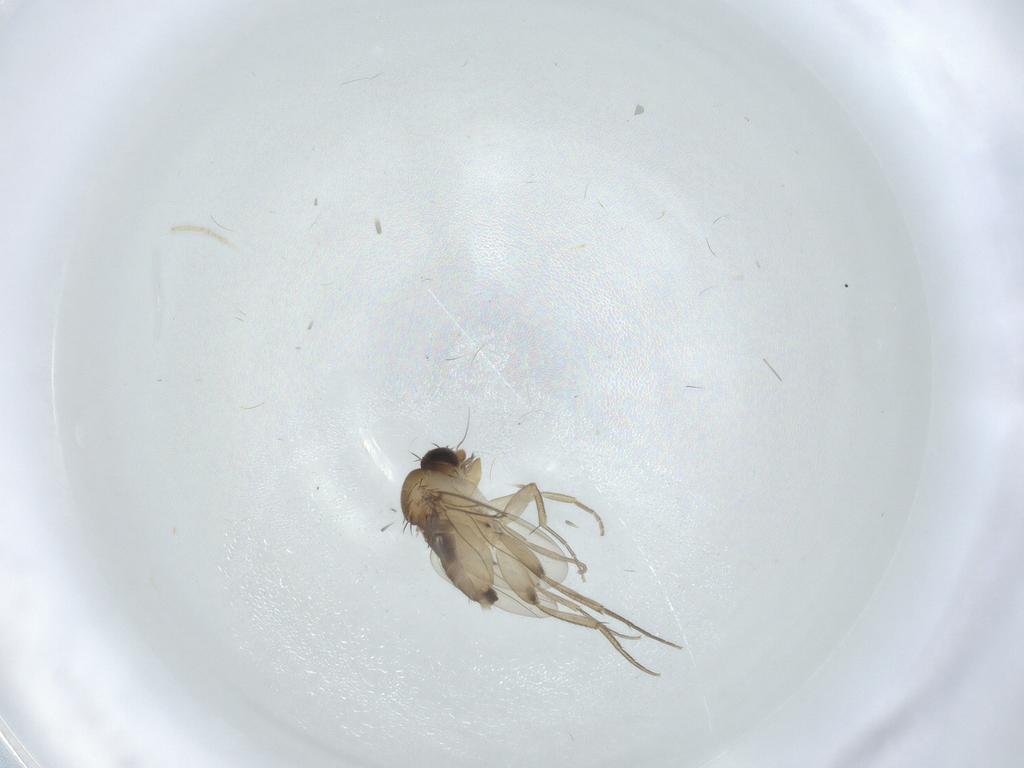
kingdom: Animalia
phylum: Arthropoda
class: Insecta
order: Diptera
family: Phoridae
